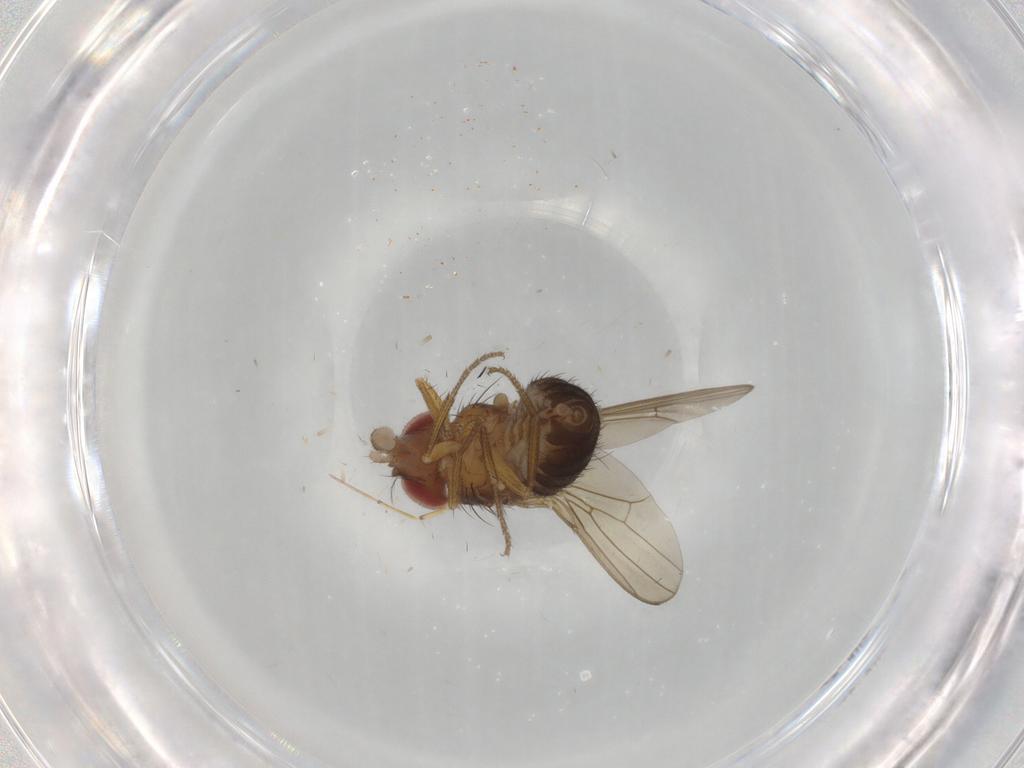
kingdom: Animalia
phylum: Arthropoda
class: Insecta
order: Diptera
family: Drosophilidae
